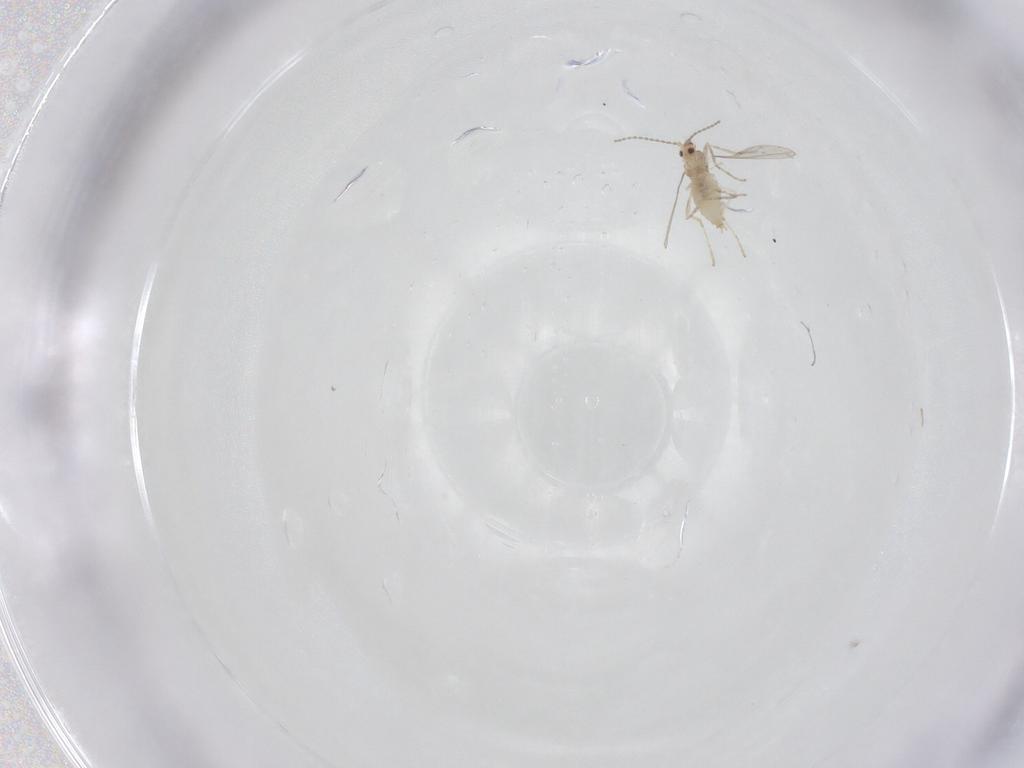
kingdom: Animalia
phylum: Arthropoda
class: Insecta
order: Diptera
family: Cecidomyiidae
